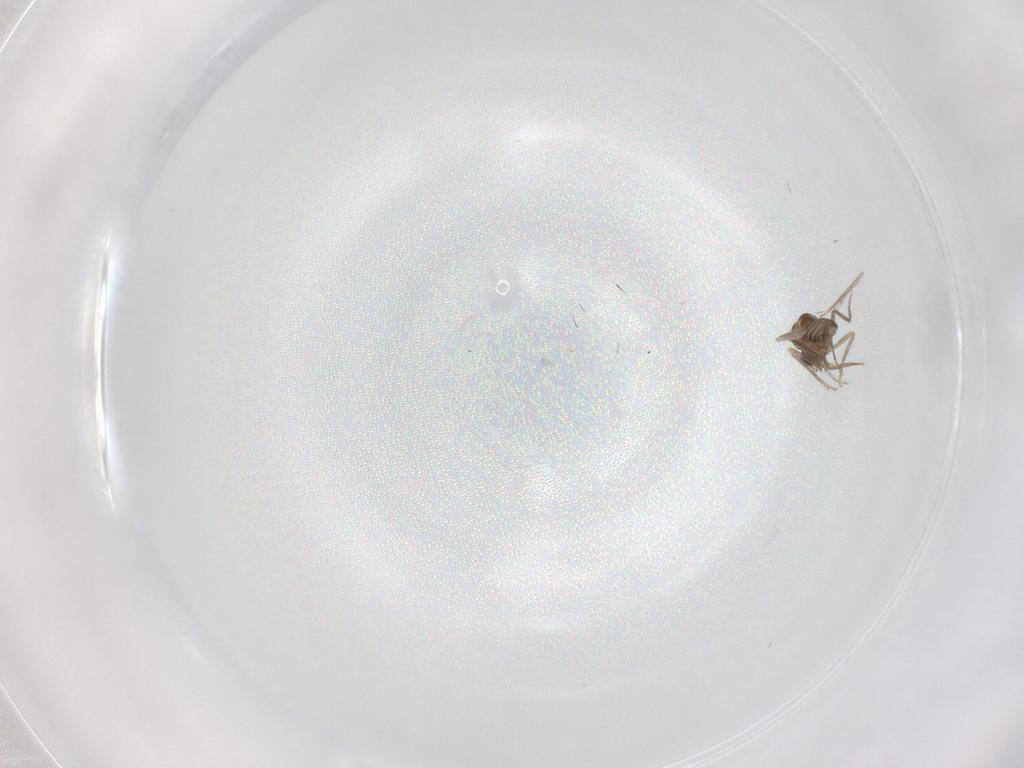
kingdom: Animalia
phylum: Arthropoda
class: Insecta
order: Diptera
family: Ceratopogonidae
